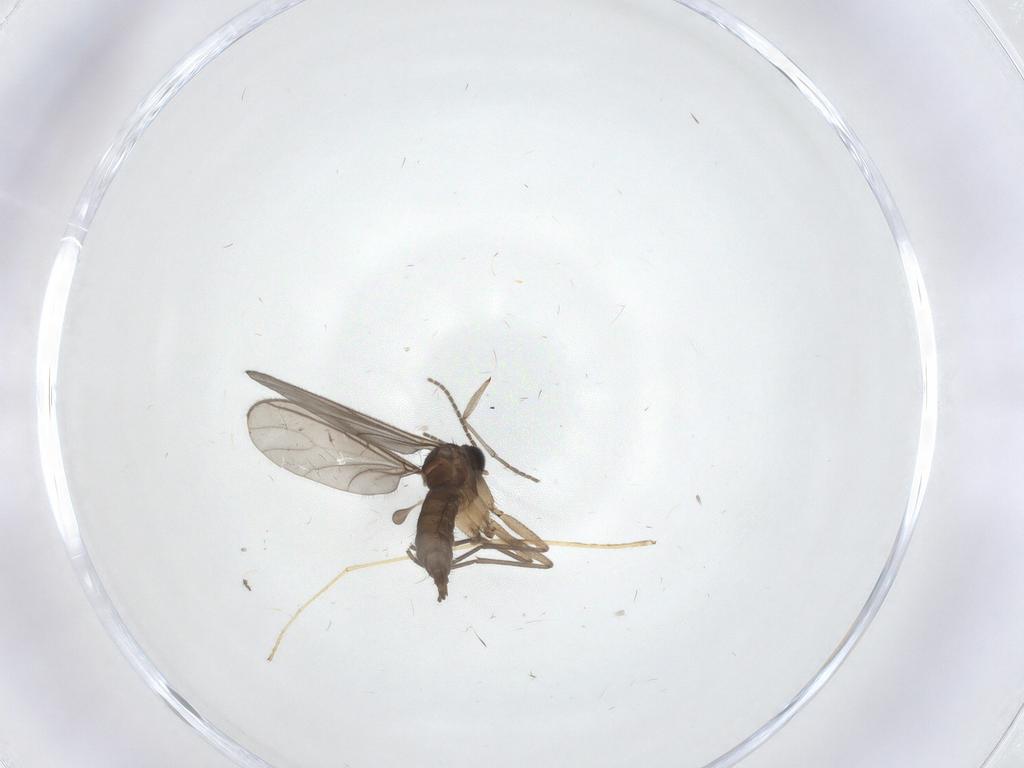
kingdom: Animalia
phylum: Arthropoda
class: Insecta
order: Diptera
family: Limoniidae
